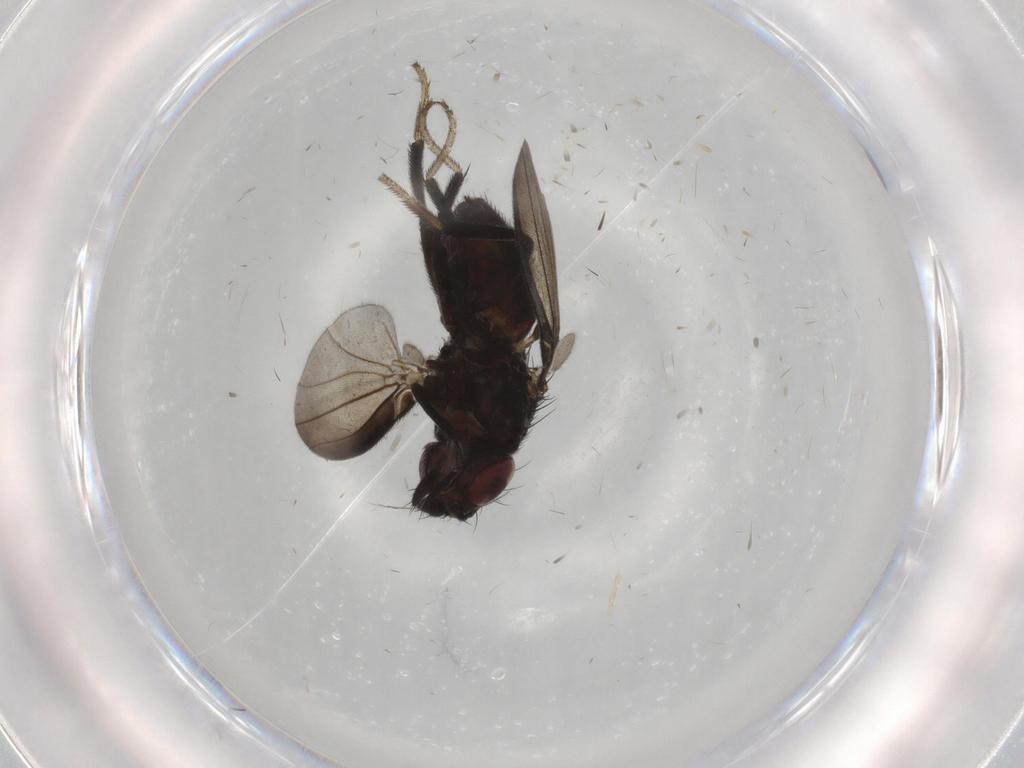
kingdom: Animalia
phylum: Arthropoda
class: Insecta
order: Diptera
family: Milichiidae
